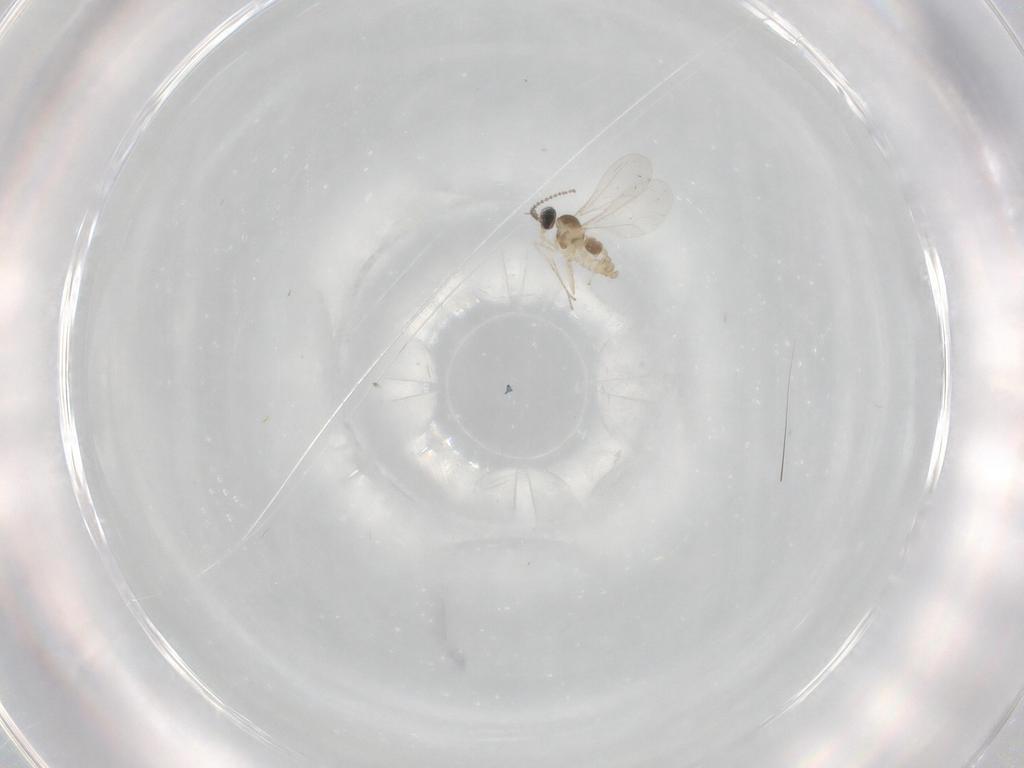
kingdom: Animalia
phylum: Arthropoda
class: Insecta
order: Diptera
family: Cecidomyiidae
